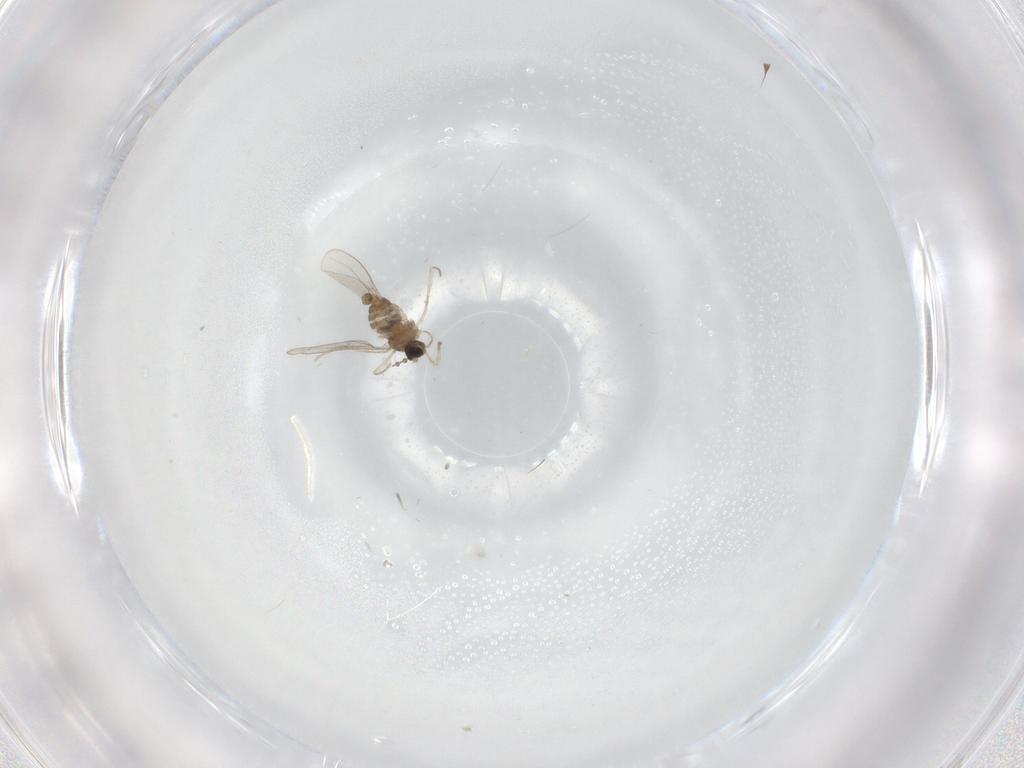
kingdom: Animalia
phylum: Arthropoda
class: Insecta
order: Diptera
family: Cecidomyiidae
